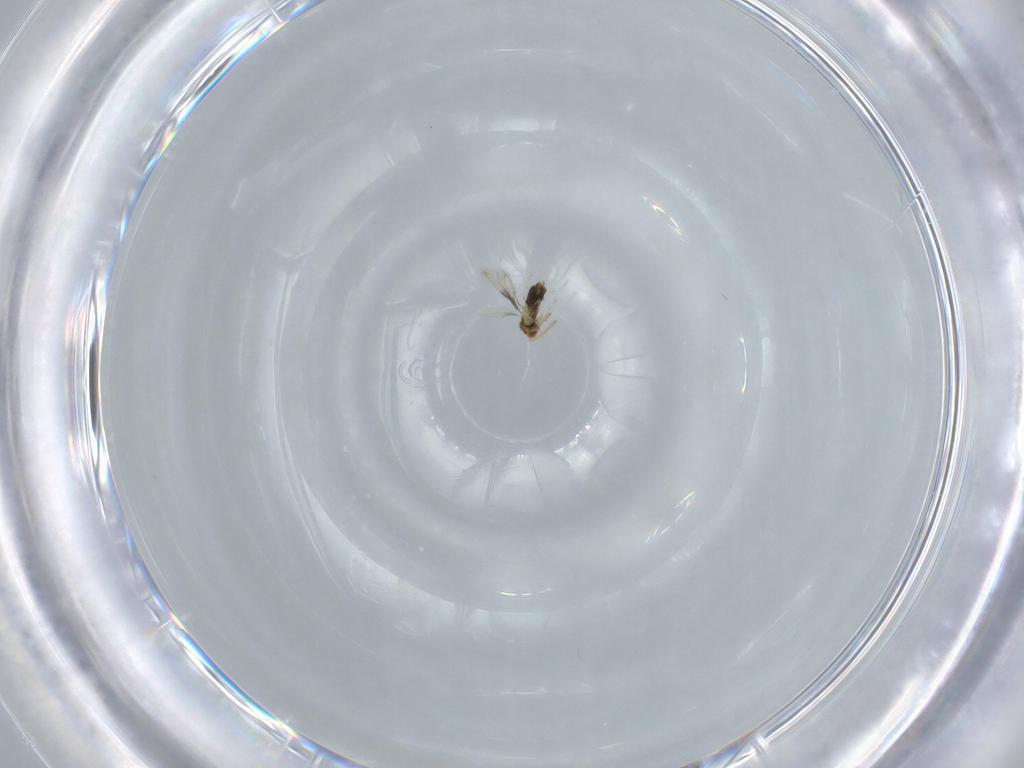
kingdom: Animalia
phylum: Arthropoda
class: Insecta
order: Hymenoptera
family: Aphelinidae
